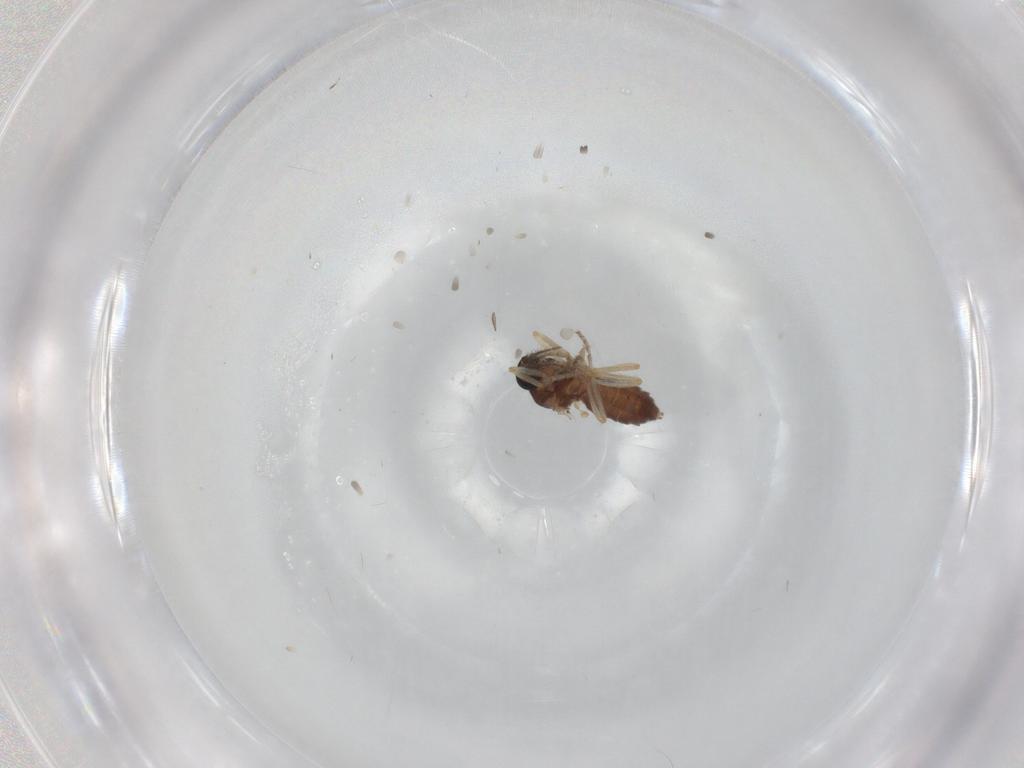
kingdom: Animalia
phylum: Arthropoda
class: Insecta
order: Diptera
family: Ceratopogonidae
